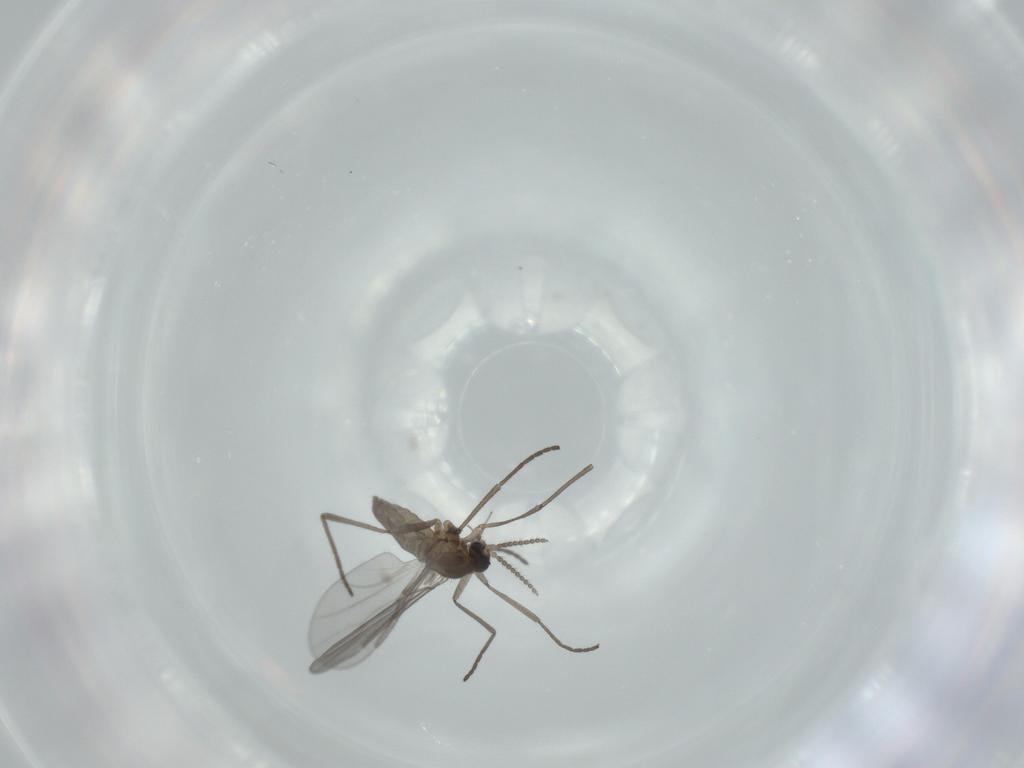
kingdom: Animalia
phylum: Arthropoda
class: Insecta
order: Diptera
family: Cecidomyiidae
